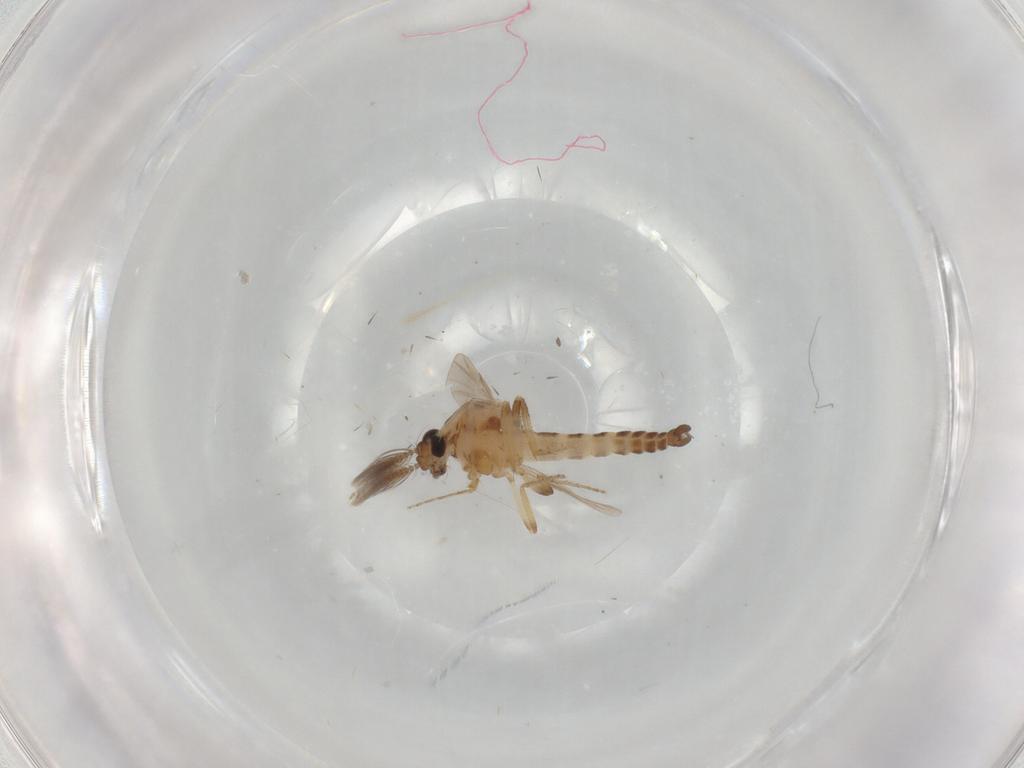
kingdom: Animalia
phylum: Arthropoda
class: Insecta
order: Diptera
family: Ceratopogonidae
